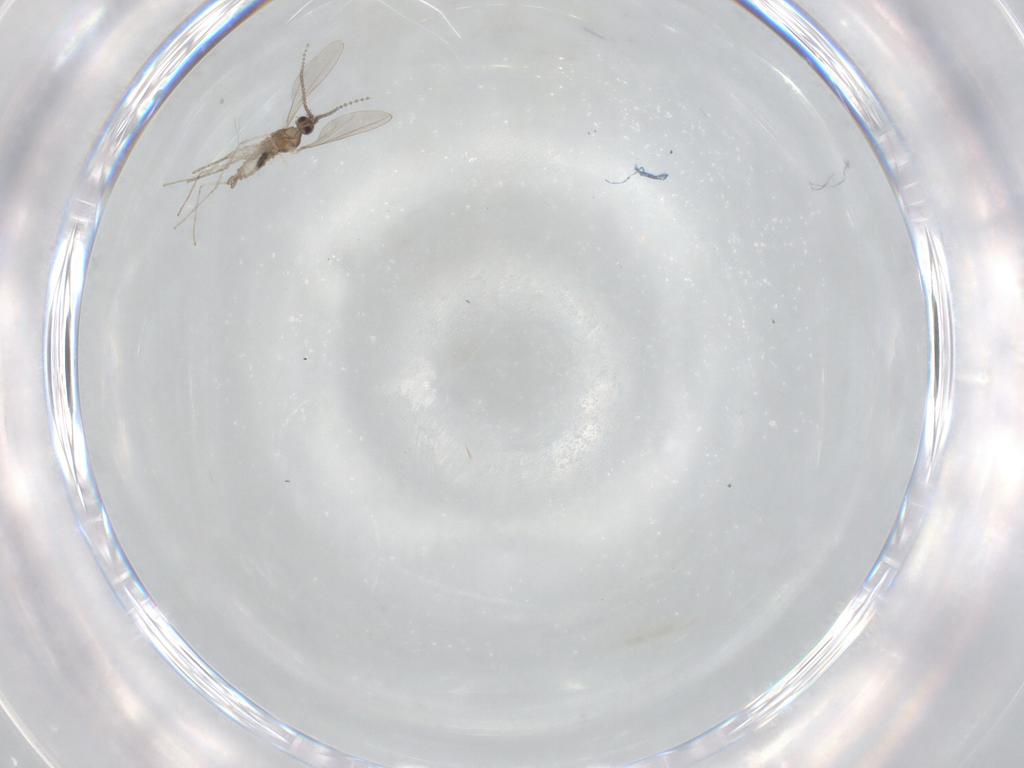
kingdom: Animalia
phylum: Arthropoda
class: Insecta
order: Diptera
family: Cecidomyiidae
